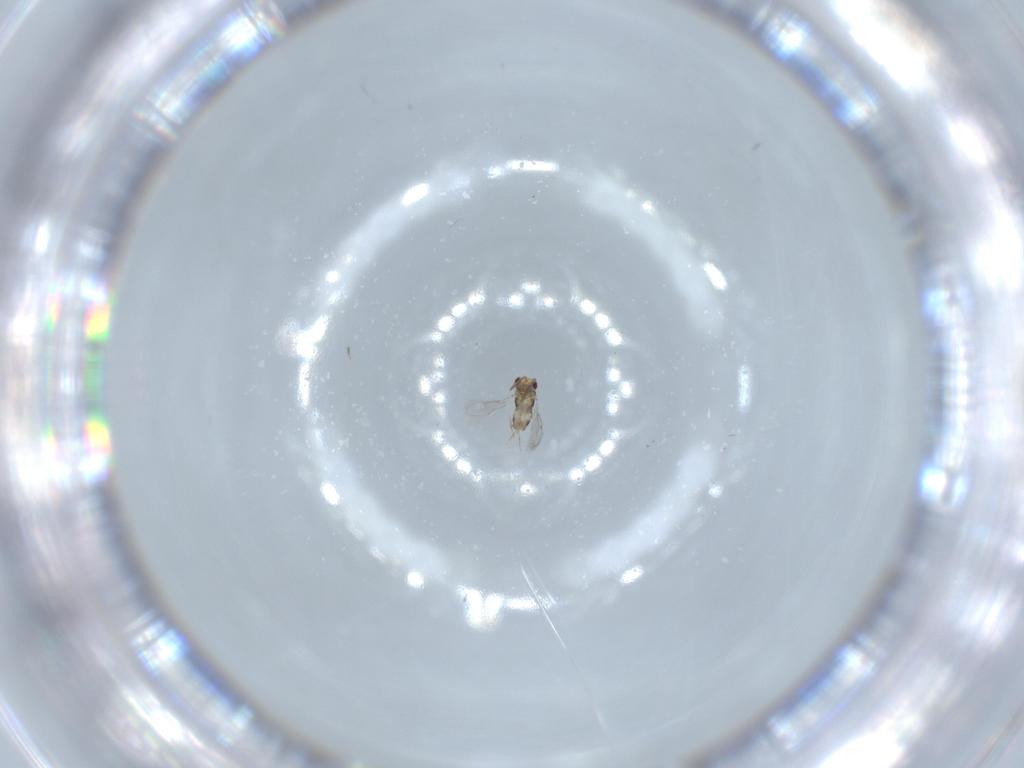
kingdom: Animalia
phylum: Arthropoda
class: Insecta
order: Hymenoptera
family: Aphelinidae
